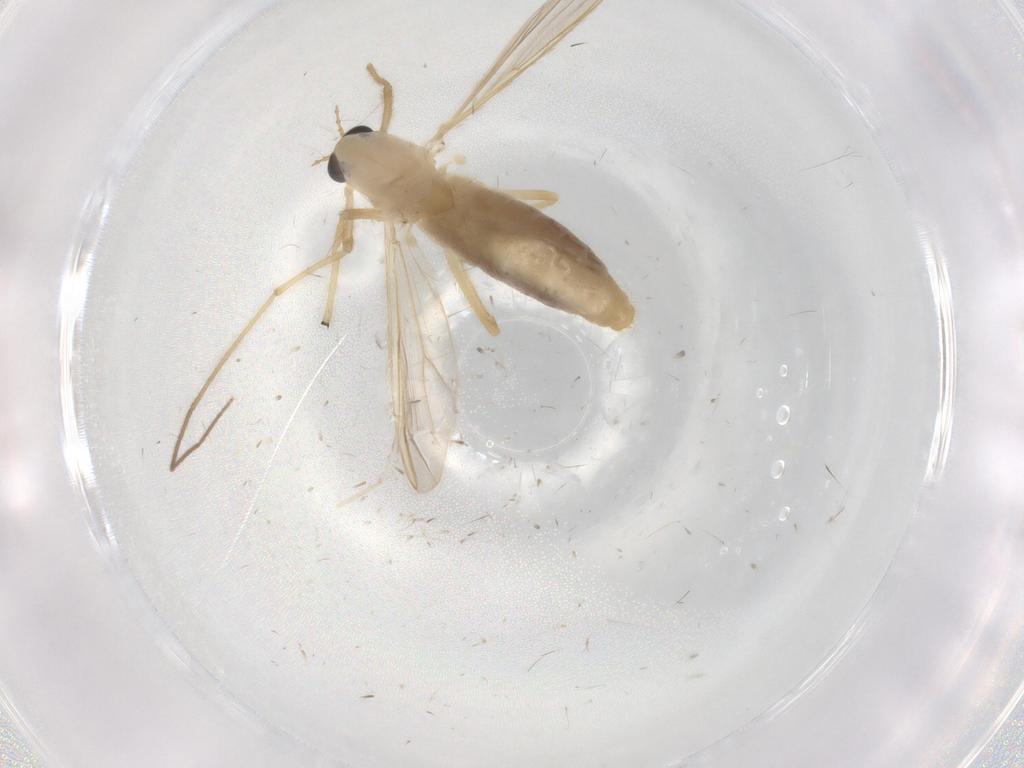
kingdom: Animalia
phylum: Arthropoda
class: Insecta
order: Diptera
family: Chironomidae
